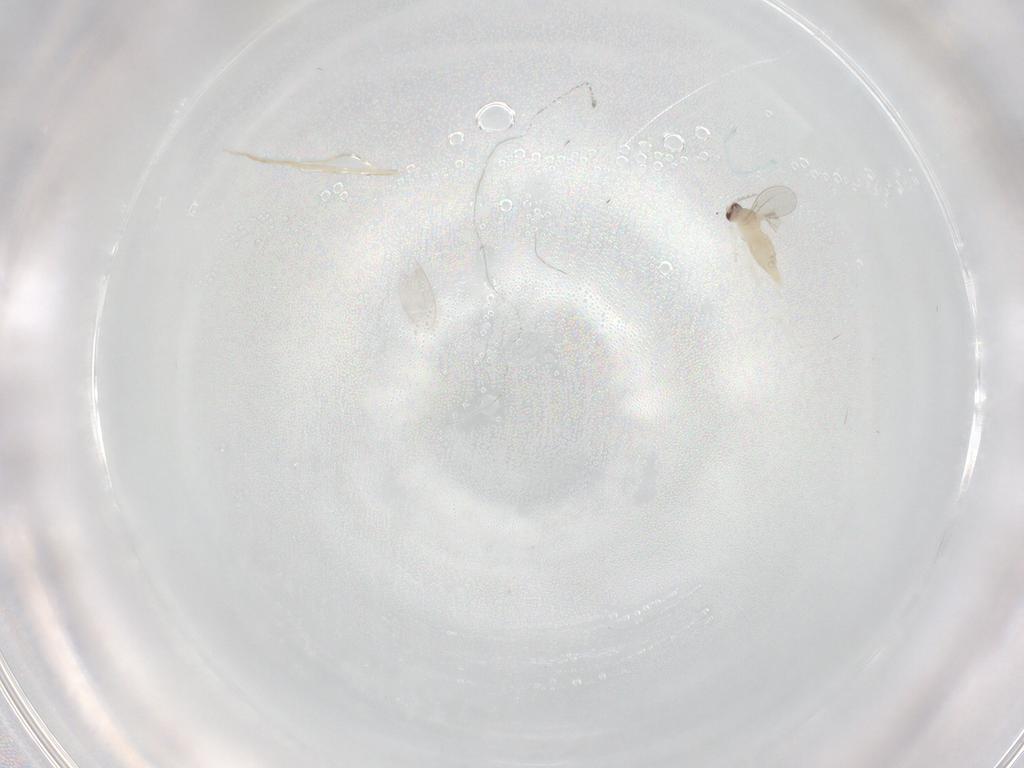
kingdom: Animalia
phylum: Arthropoda
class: Insecta
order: Diptera
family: Cecidomyiidae
